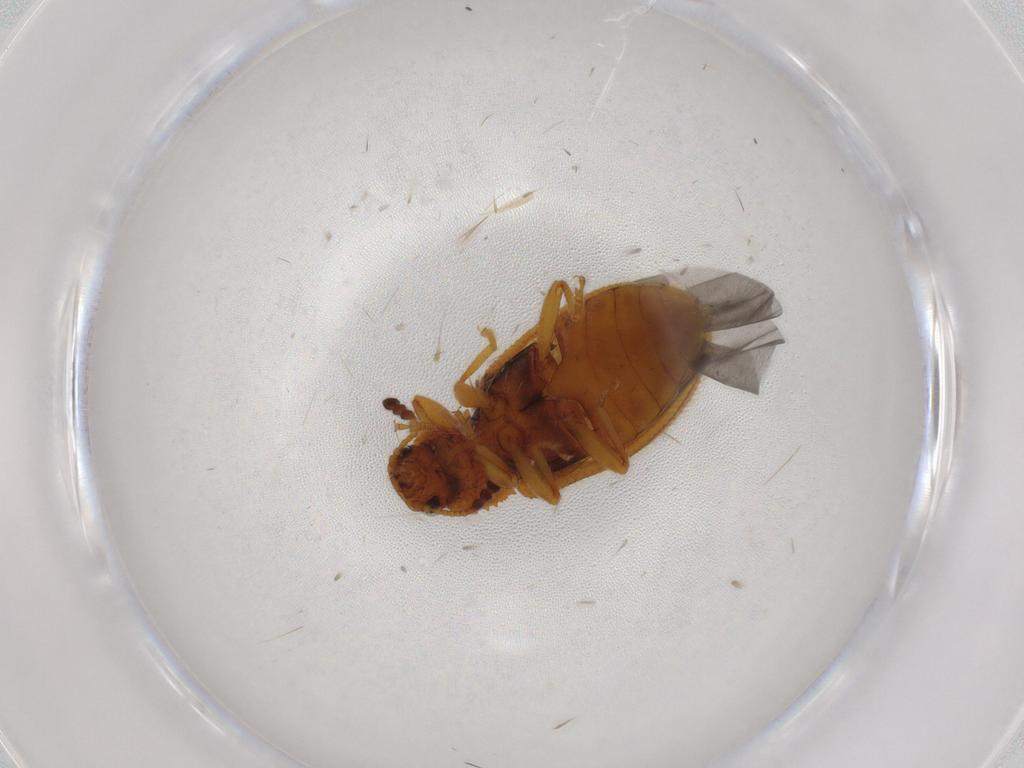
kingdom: Animalia
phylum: Arthropoda
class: Insecta
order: Coleoptera
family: Tenebrionidae
